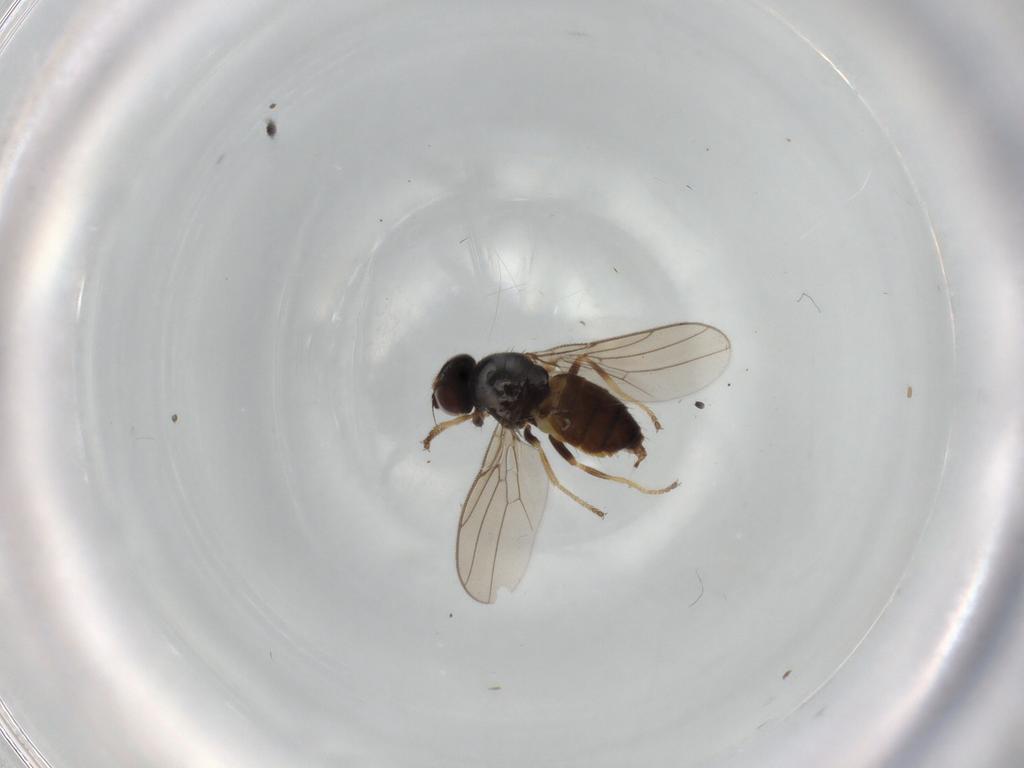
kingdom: Animalia
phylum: Arthropoda
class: Insecta
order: Diptera
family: Chloropidae
